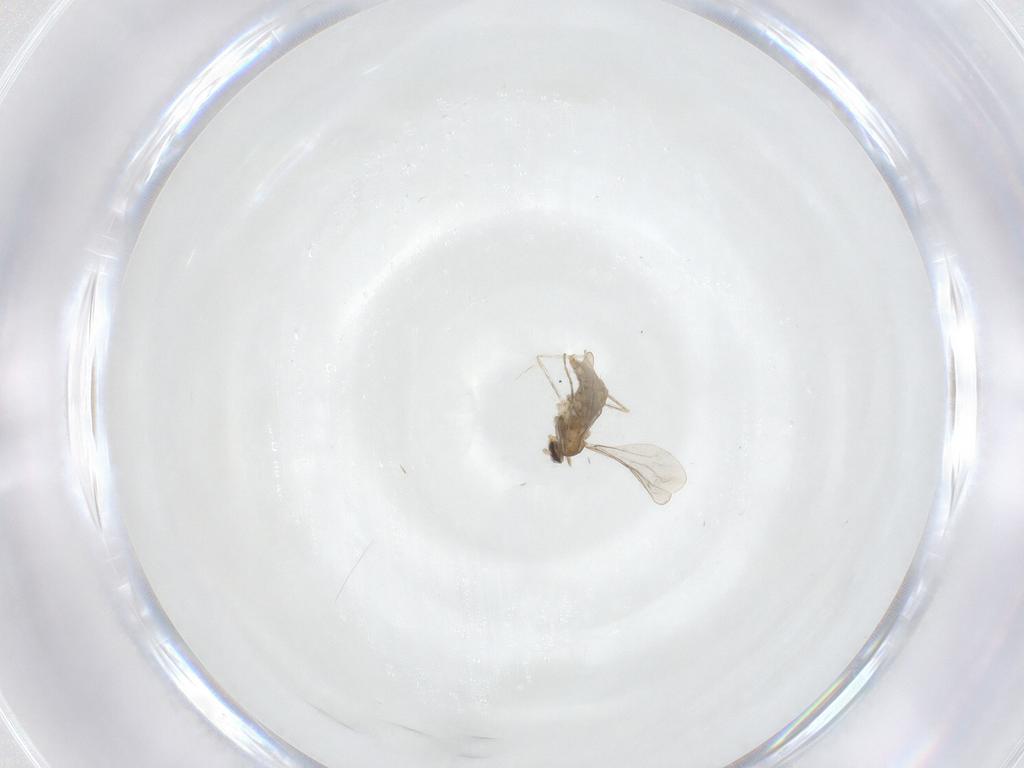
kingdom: Animalia
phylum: Arthropoda
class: Insecta
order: Diptera
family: Cecidomyiidae
